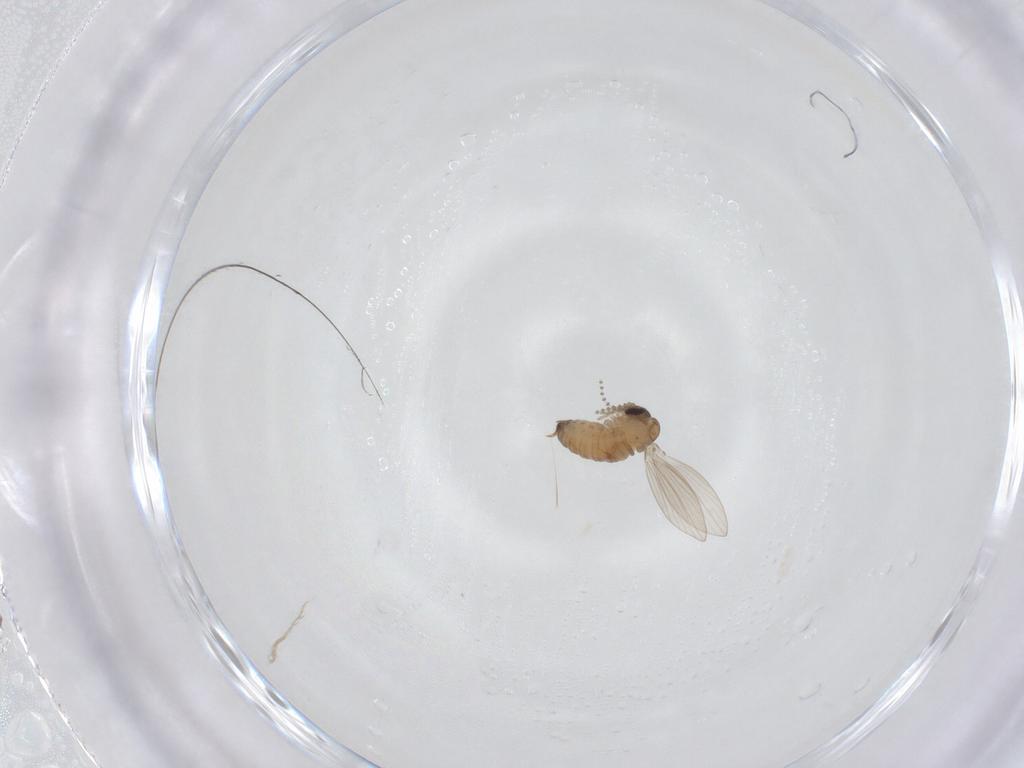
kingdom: Animalia
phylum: Arthropoda
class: Insecta
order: Diptera
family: Psychodidae
